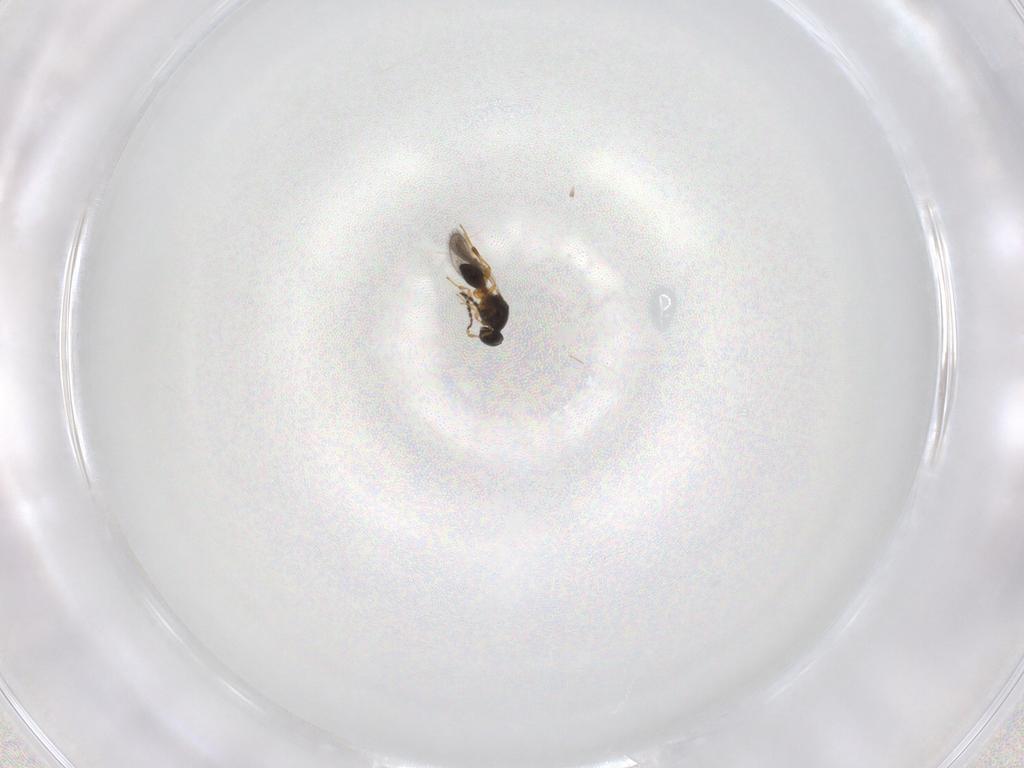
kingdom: Animalia
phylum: Arthropoda
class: Insecta
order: Hymenoptera
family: Platygastridae
